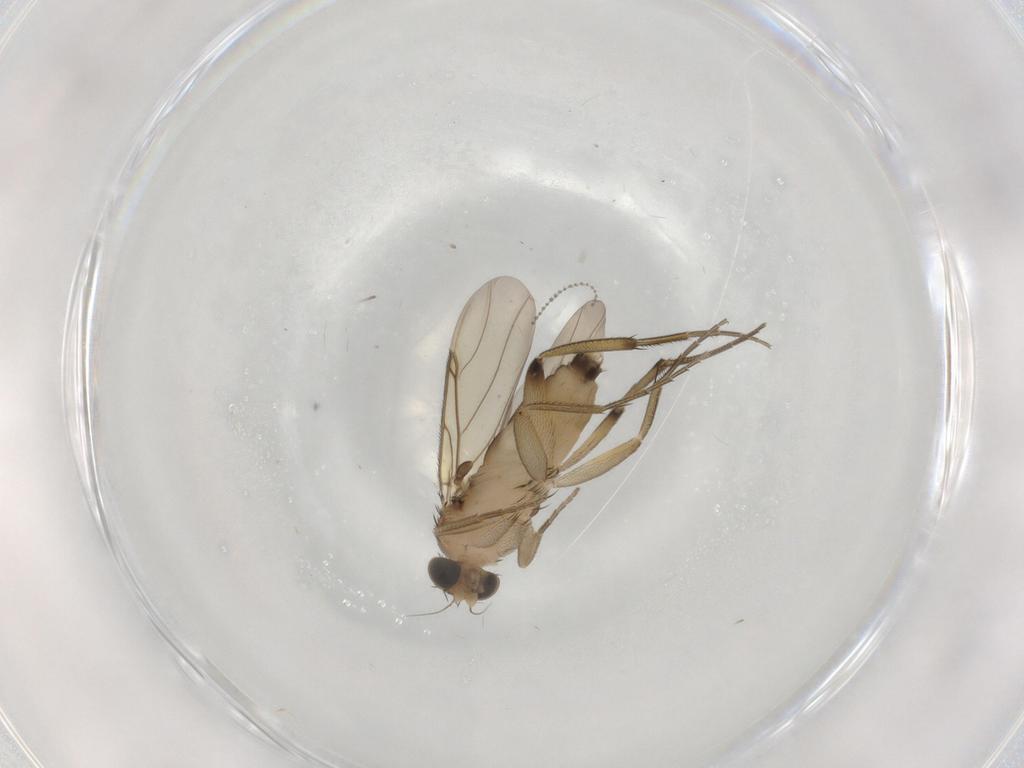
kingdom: Animalia
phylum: Arthropoda
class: Insecta
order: Diptera
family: Phoridae
